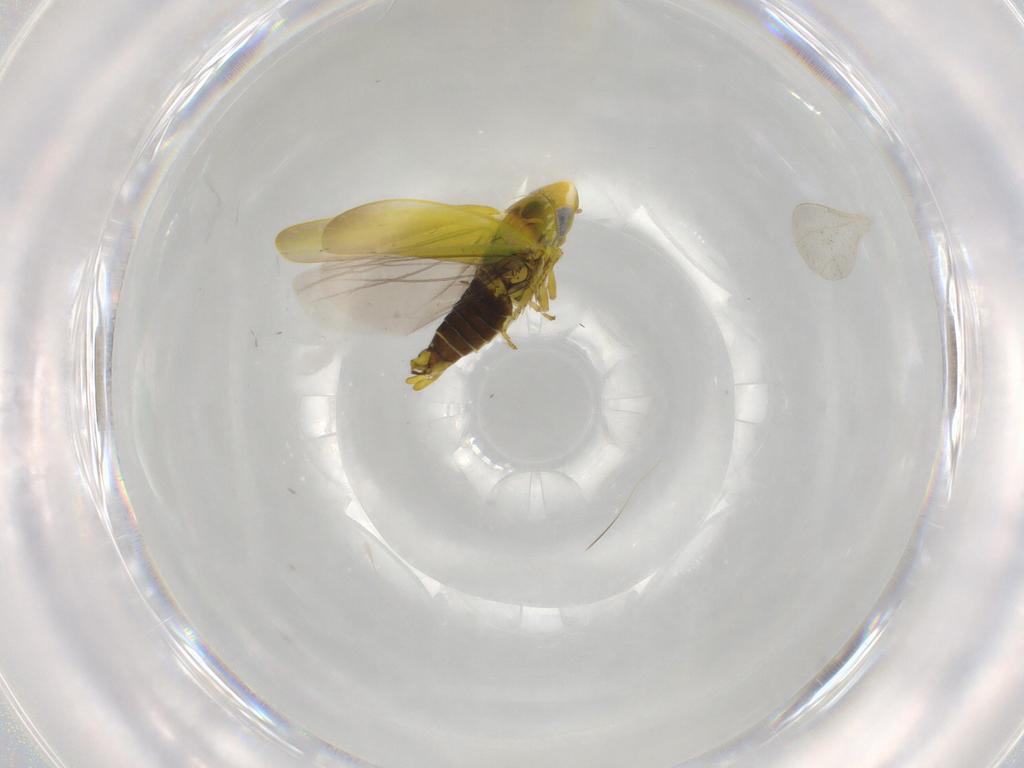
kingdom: Animalia
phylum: Arthropoda
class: Insecta
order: Hemiptera
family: Cicadellidae
